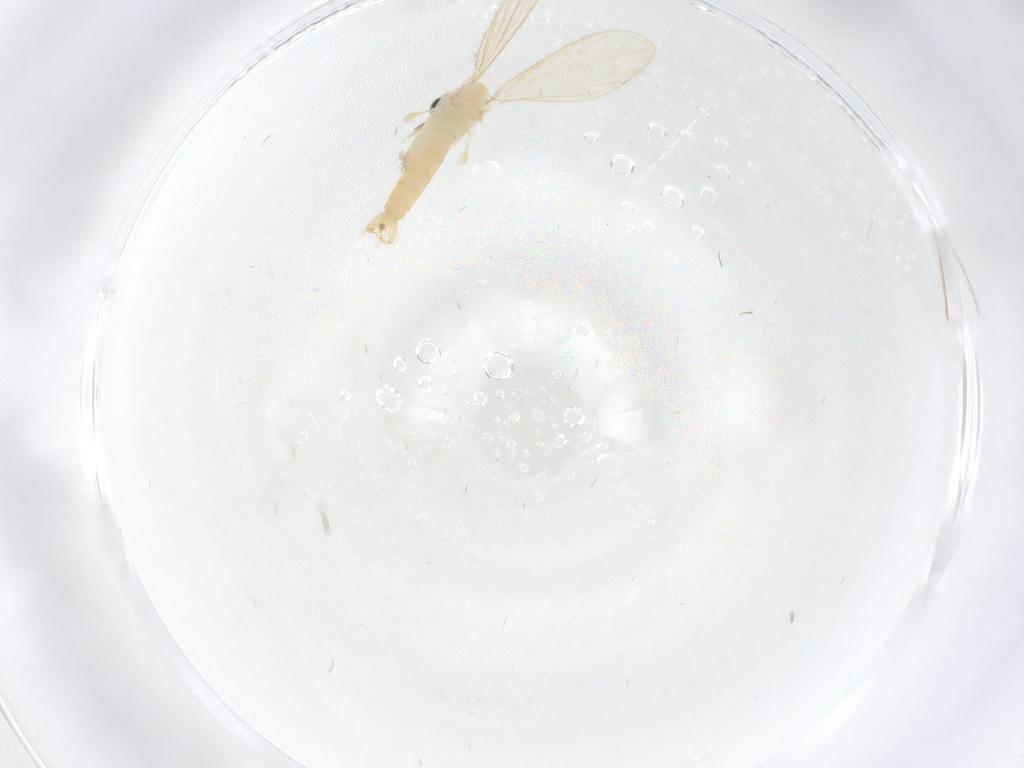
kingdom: Animalia
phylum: Arthropoda
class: Insecta
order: Diptera
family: Psychodidae
